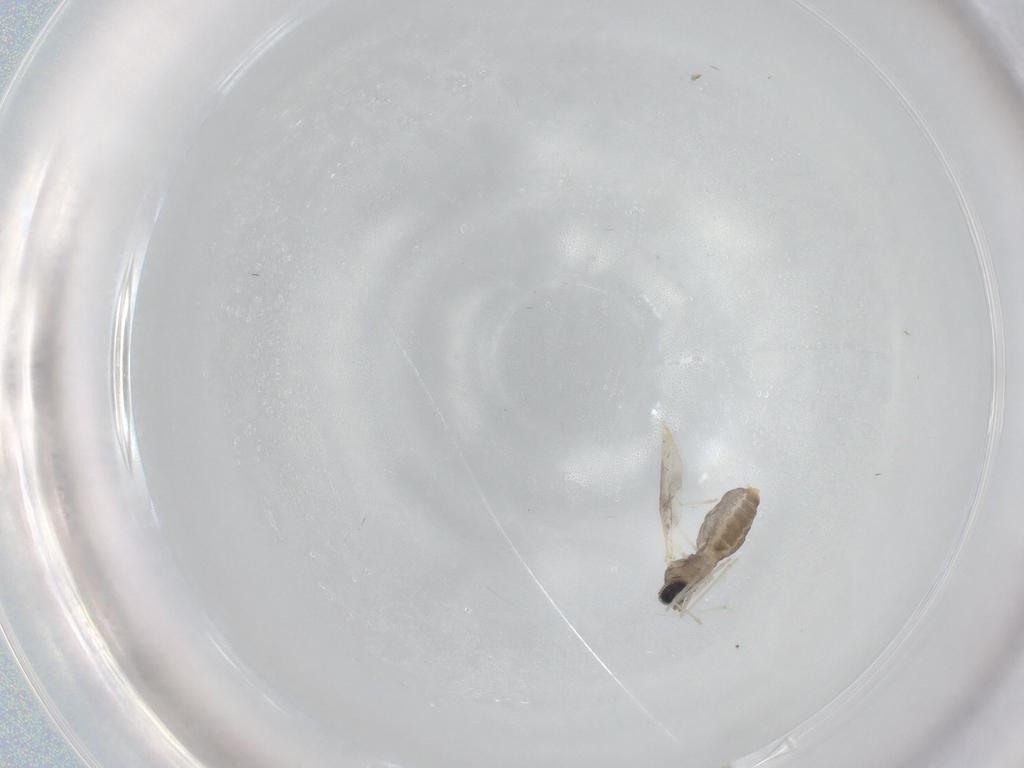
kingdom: Animalia
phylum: Arthropoda
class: Insecta
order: Diptera
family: Cecidomyiidae
